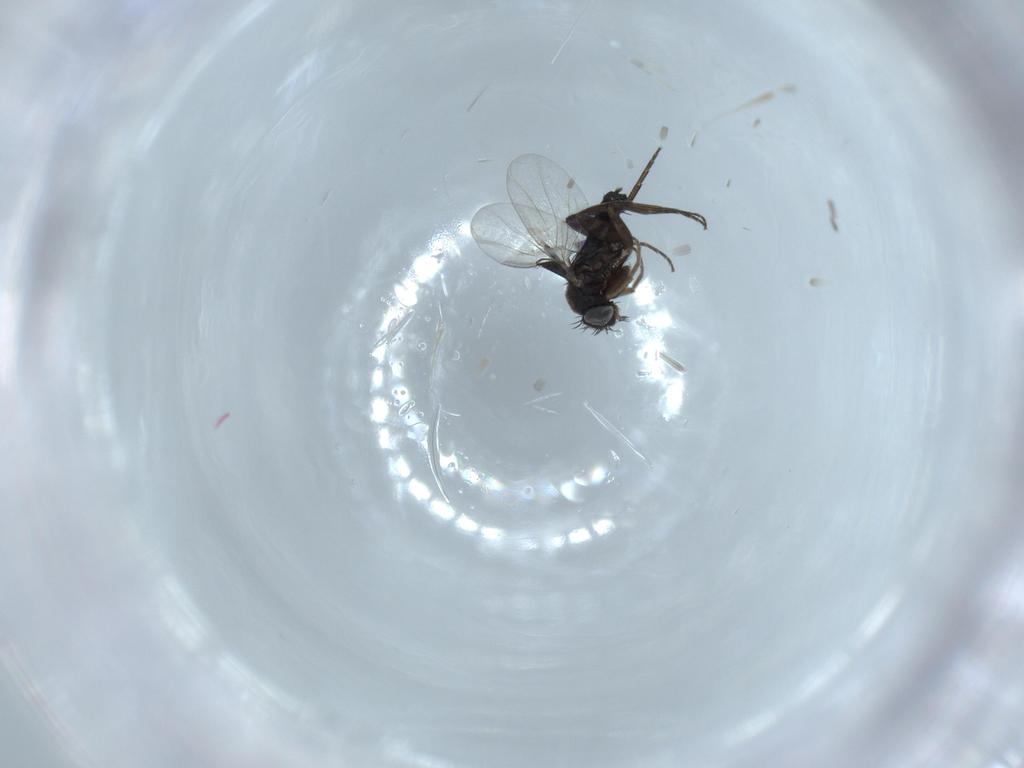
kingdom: Animalia
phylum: Arthropoda
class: Insecta
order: Diptera
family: Phoridae
